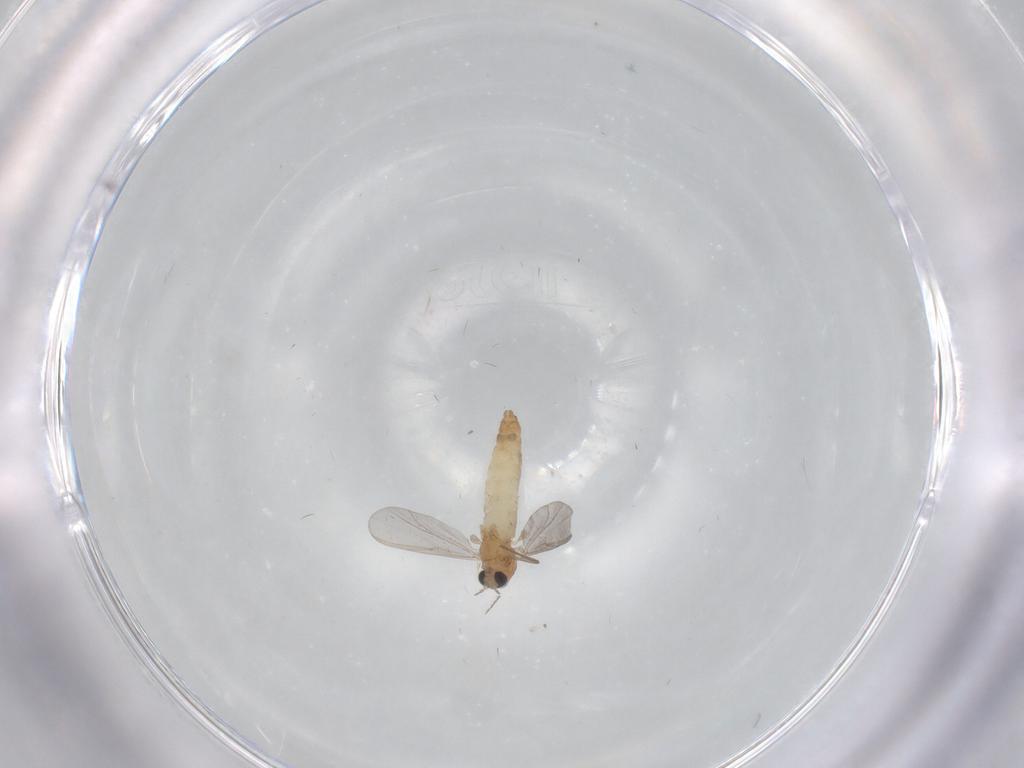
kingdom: Animalia
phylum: Arthropoda
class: Insecta
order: Diptera
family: Chironomidae
